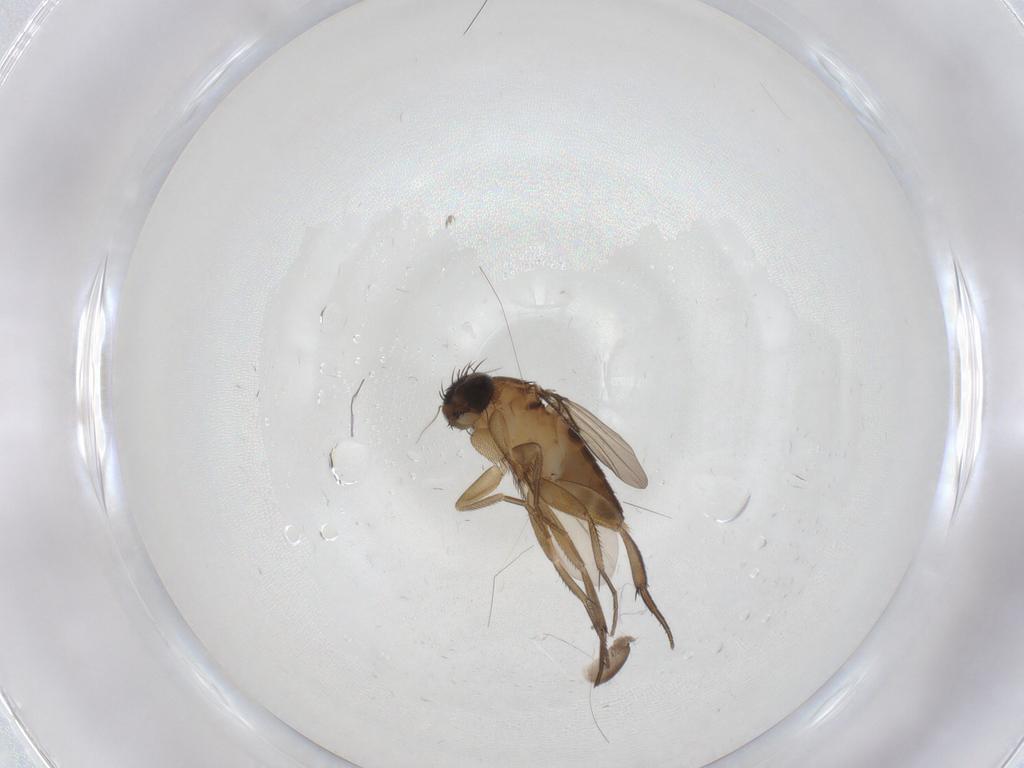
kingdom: Animalia
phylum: Arthropoda
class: Insecta
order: Diptera
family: Phoridae
